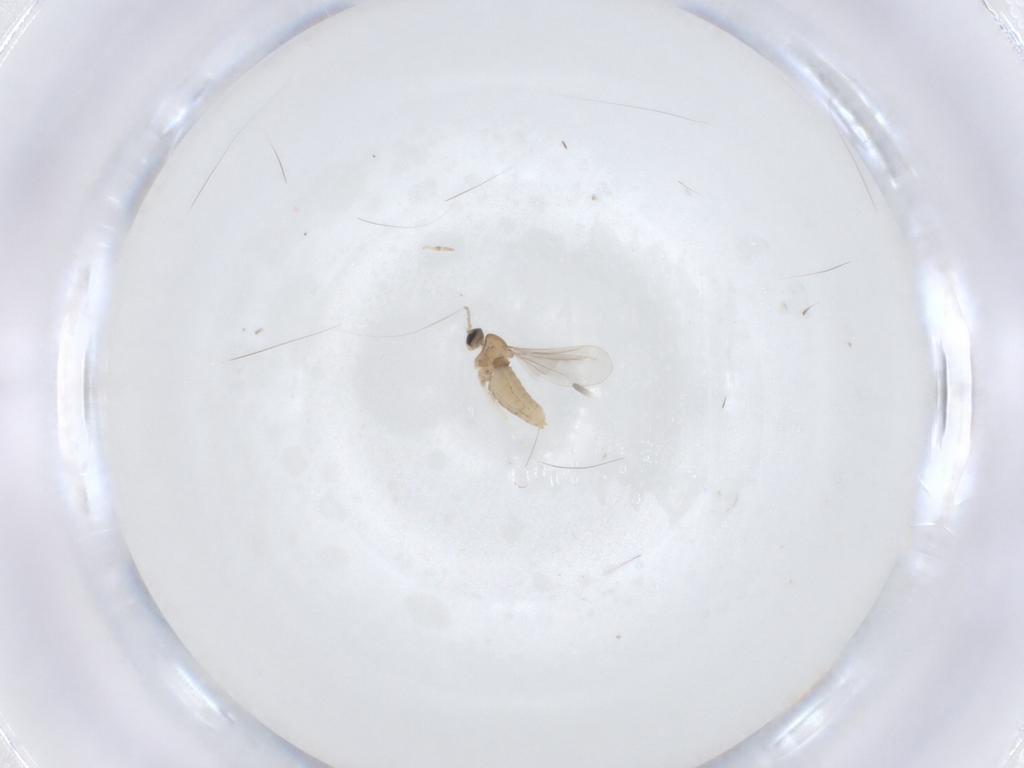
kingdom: Animalia
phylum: Arthropoda
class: Insecta
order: Diptera
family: Cecidomyiidae
